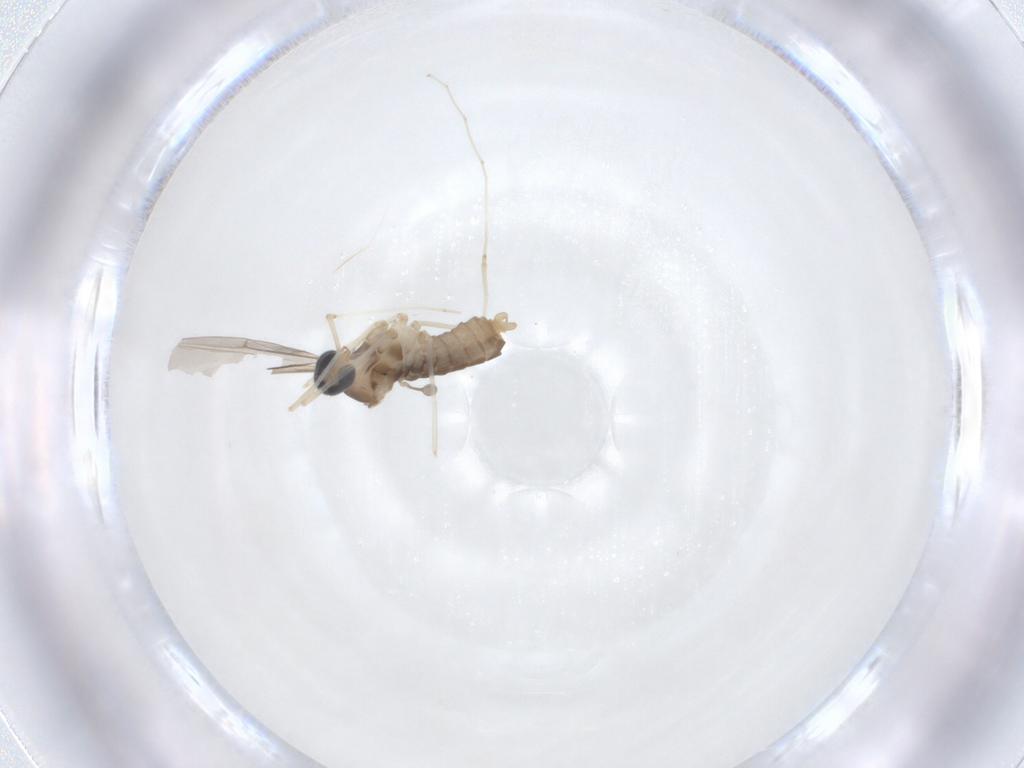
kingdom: Animalia
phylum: Arthropoda
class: Insecta
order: Diptera
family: Cecidomyiidae
